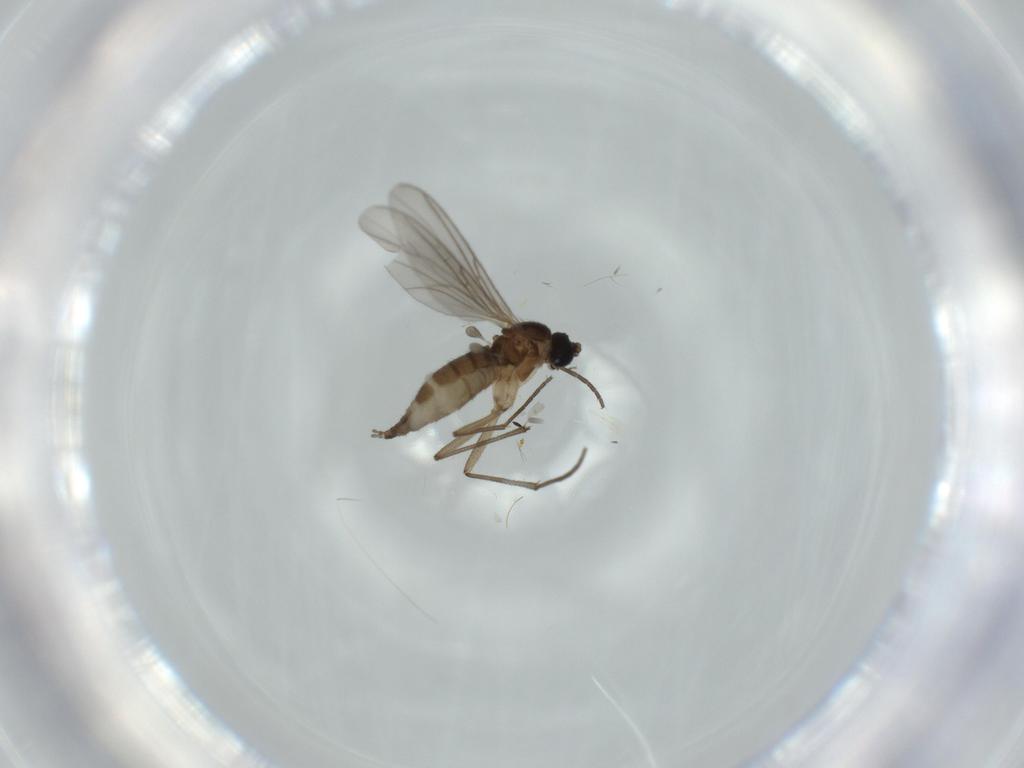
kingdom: Animalia
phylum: Arthropoda
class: Insecta
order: Diptera
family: Sciaridae
